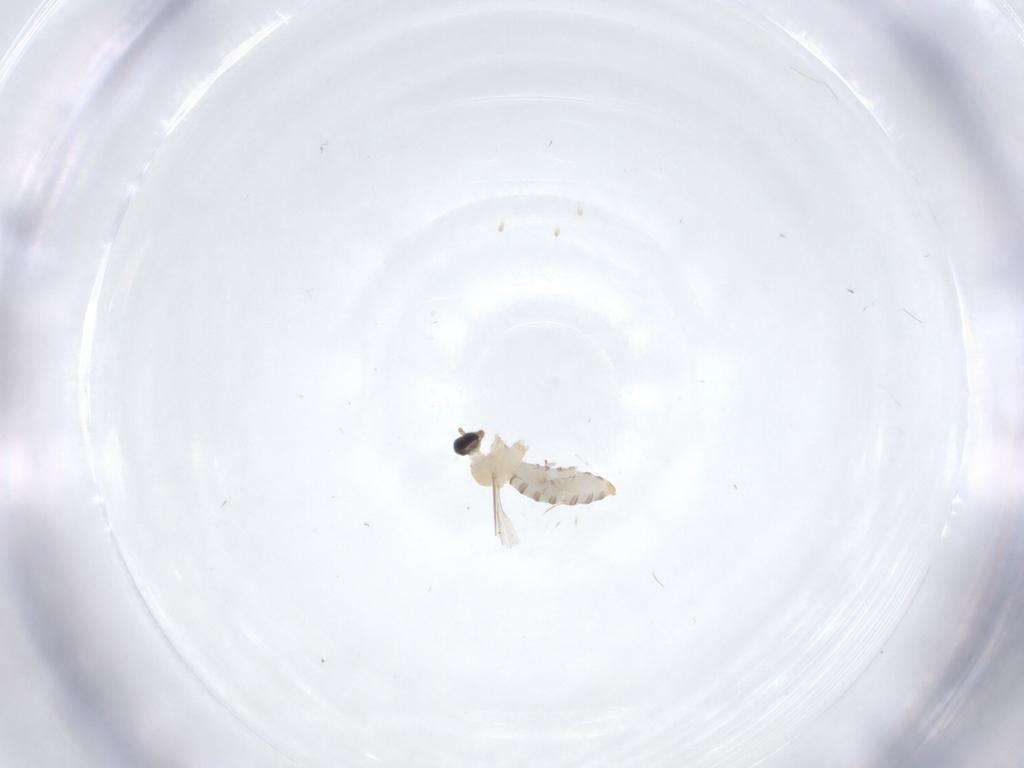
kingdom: Animalia
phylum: Arthropoda
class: Insecta
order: Diptera
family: Cecidomyiidae
